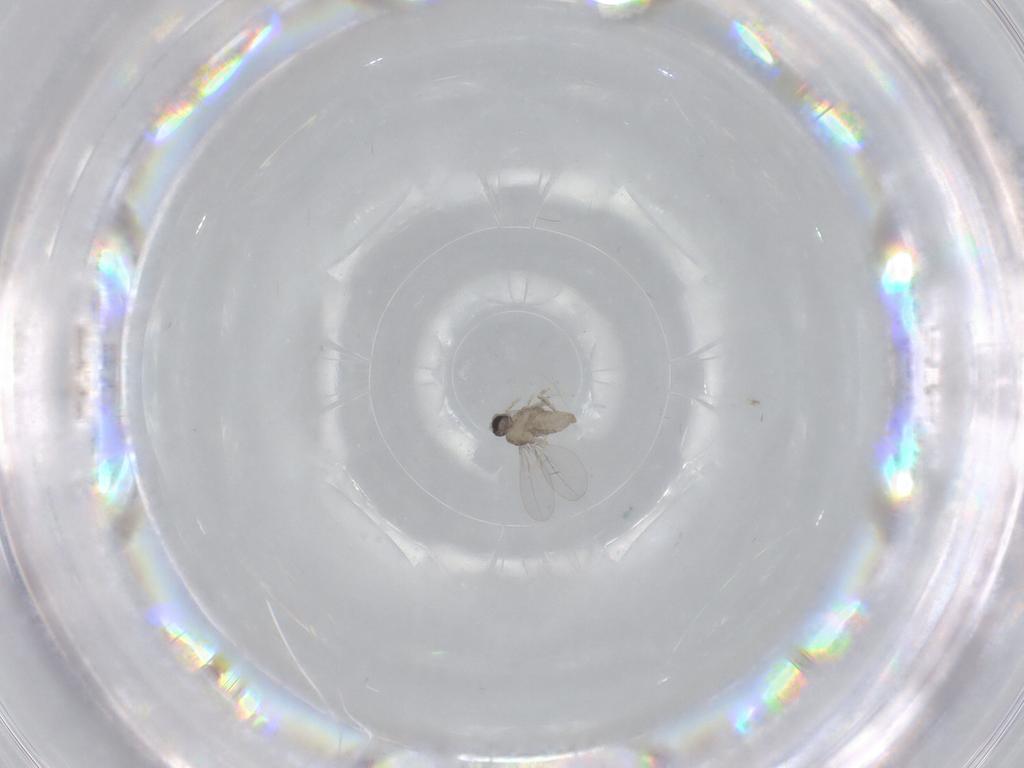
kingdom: Animalia
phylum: Arthropoda
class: Insecta
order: Diptera
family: Cecidomyiidae
